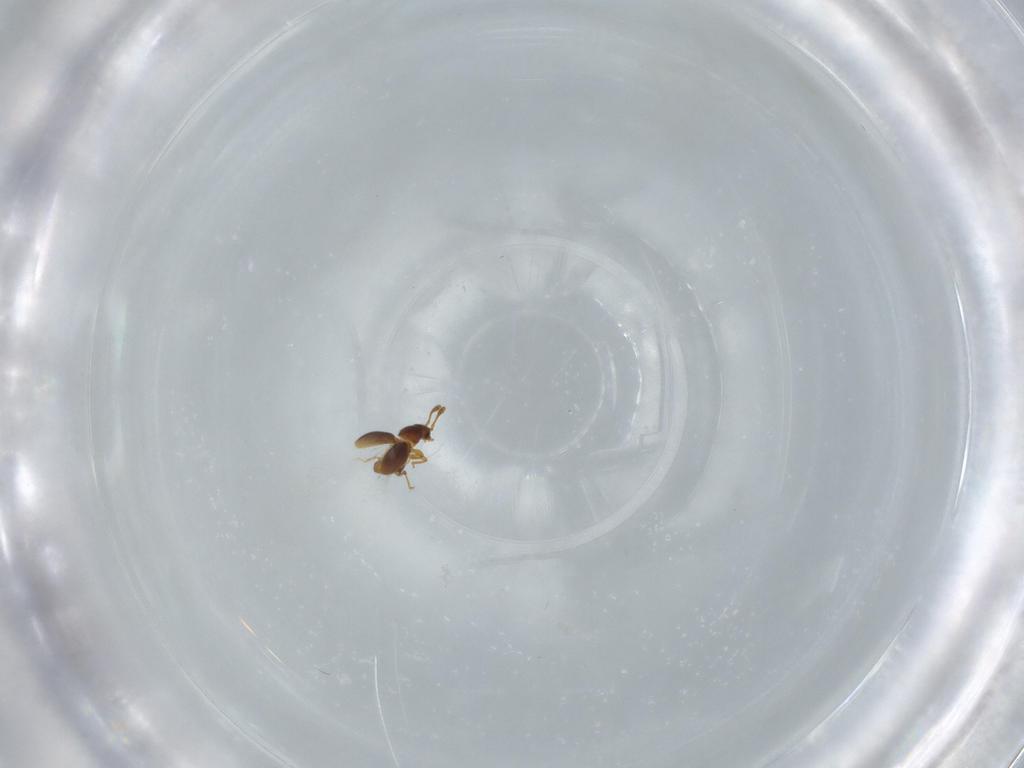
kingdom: Animalia
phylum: Arthropoda
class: Insecta
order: Coleoptera
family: Staphylinidae
